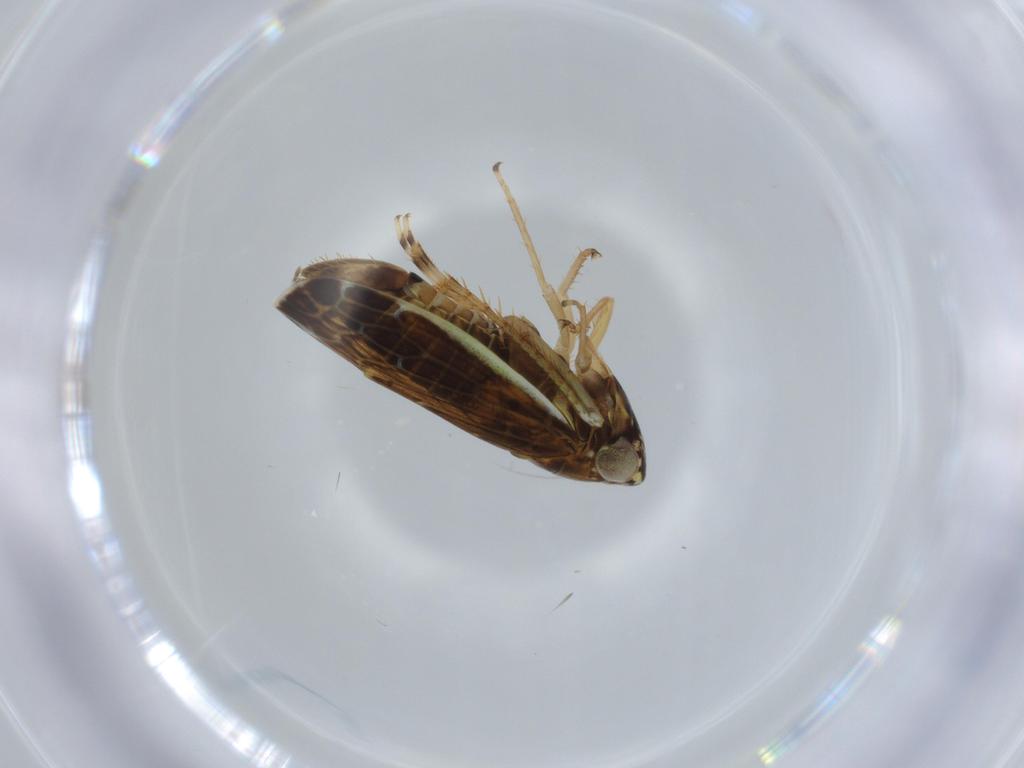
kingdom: Animalia
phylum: Arthropoda
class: Insecta
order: Hemiptera
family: Cicadellidae
